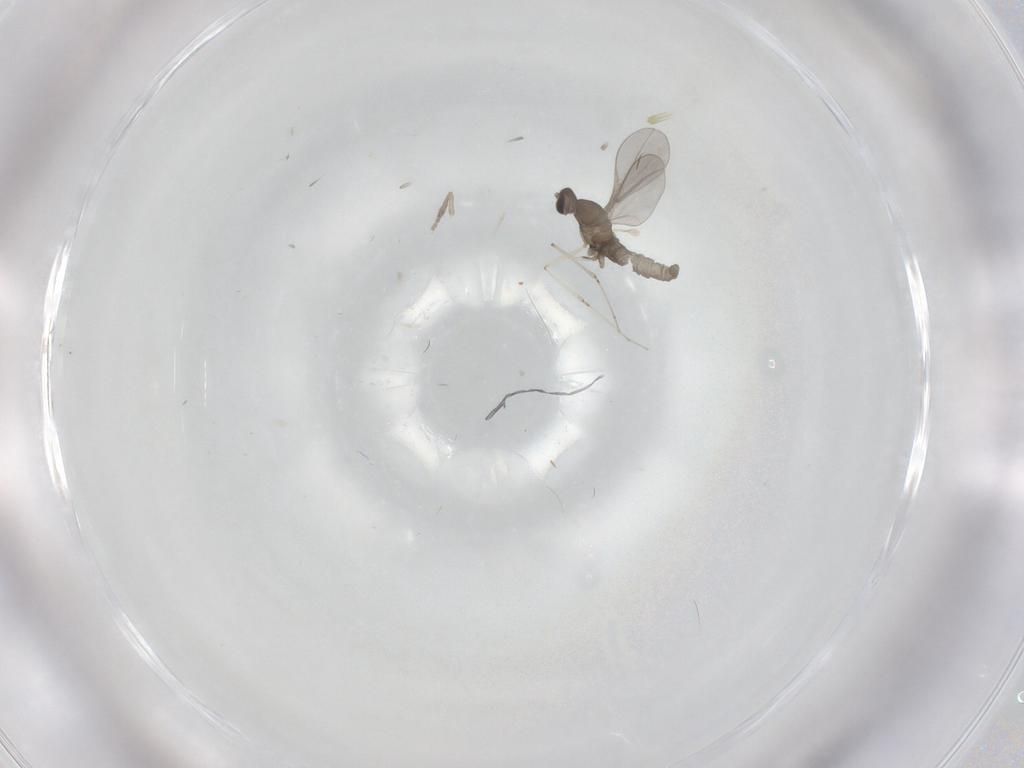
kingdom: Animalia
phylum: Arthropoda
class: Insecta
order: Diptera
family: Cecidomyiidae
